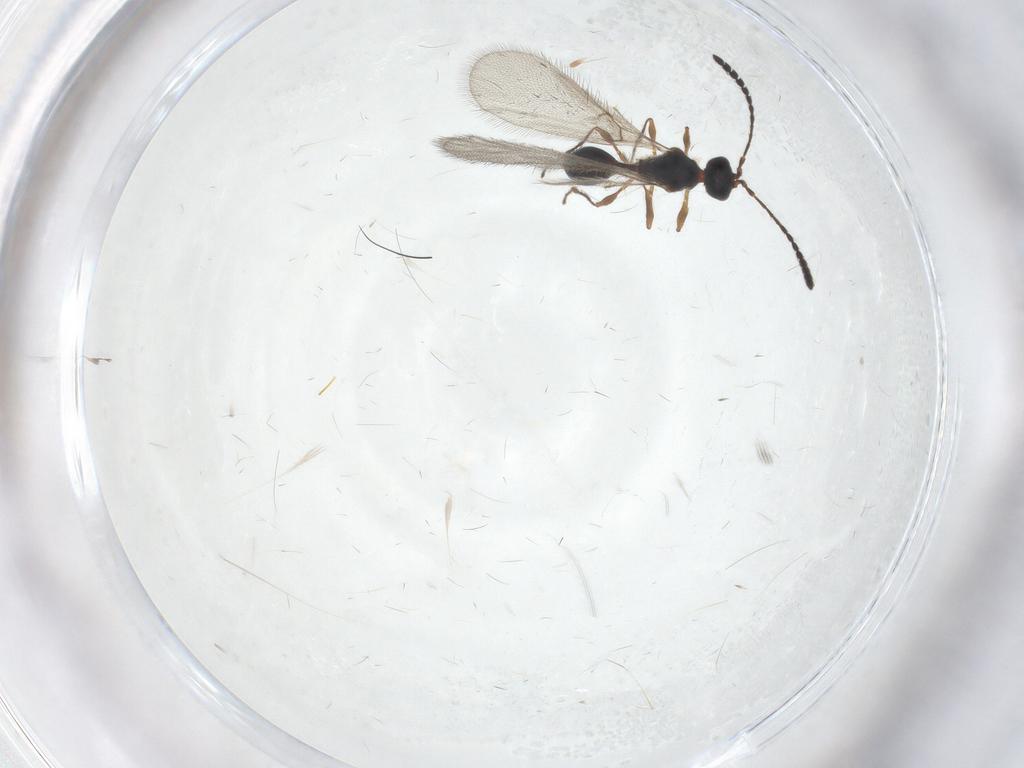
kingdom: Animalia
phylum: Arthropoda
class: Insecta
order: Hymenoptera
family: Diapriidae
